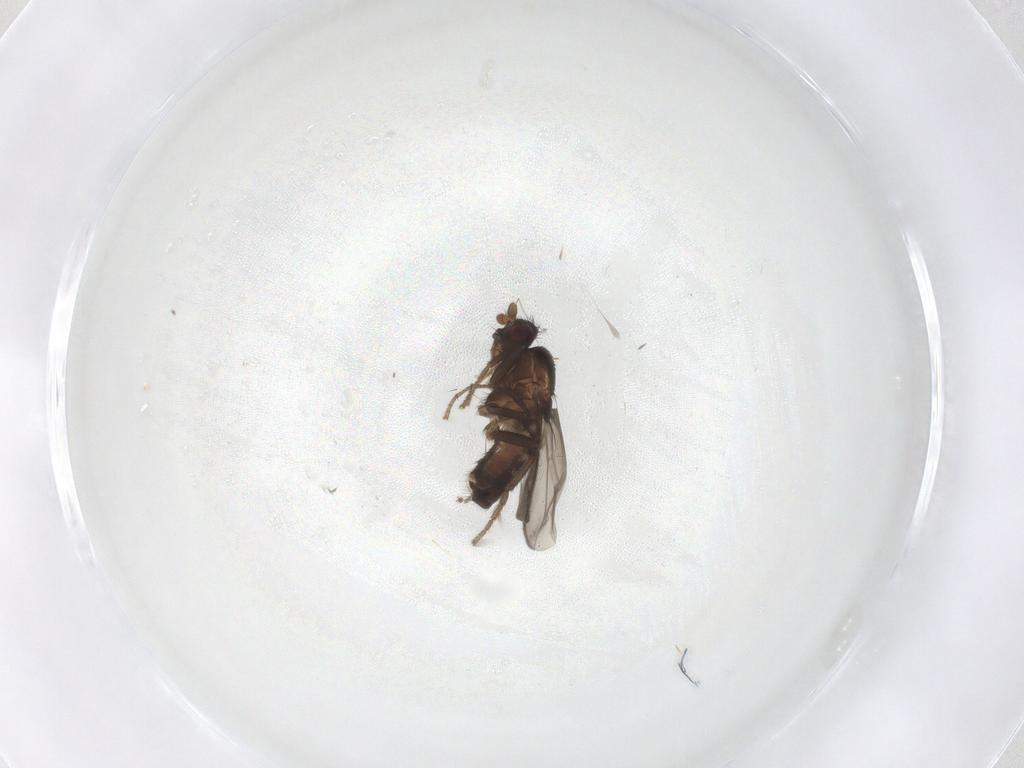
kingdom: Animalia
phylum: Arthropoda
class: Insecta
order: Diptera
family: Sphaeroceridae
